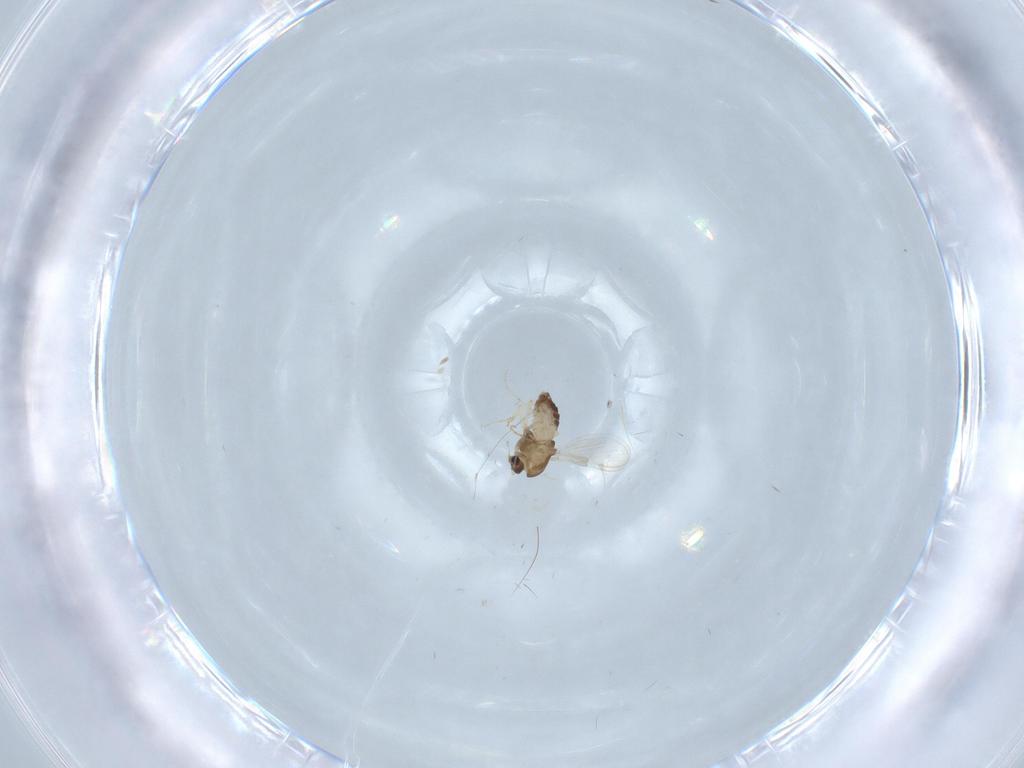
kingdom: Animalia
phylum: Arthropoda
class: Insecta
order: Diptera
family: Chironomidae
